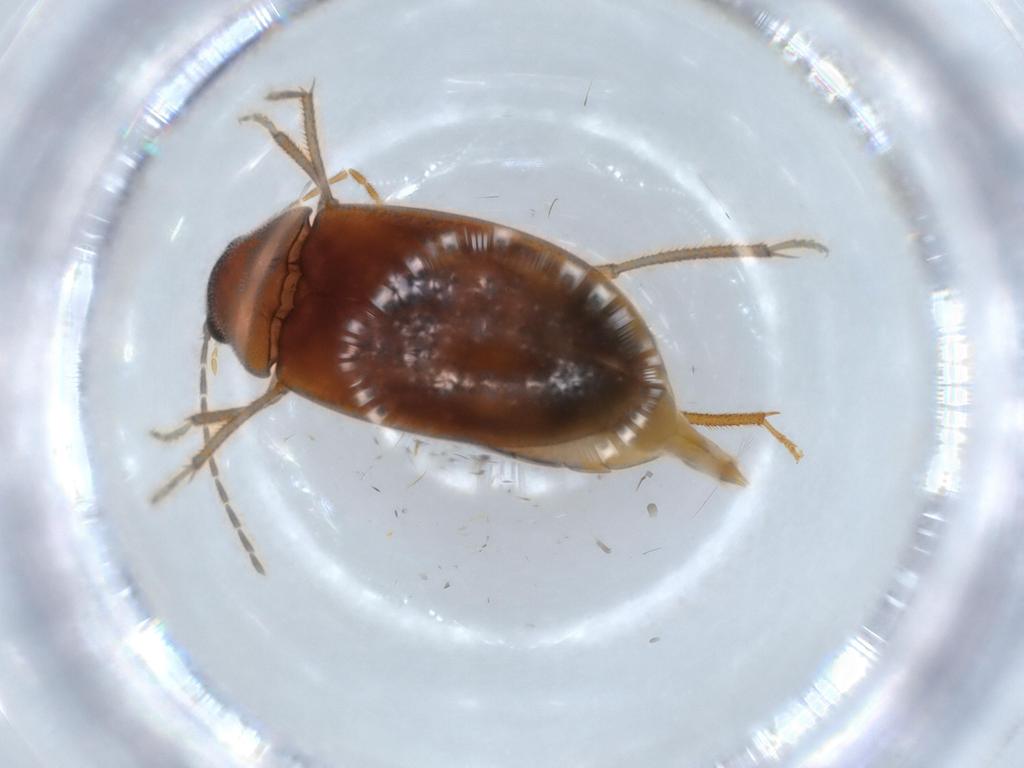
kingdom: Animalia
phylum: Arthropoda
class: Insecta
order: Coleoptera
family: Ptilodactylidae
